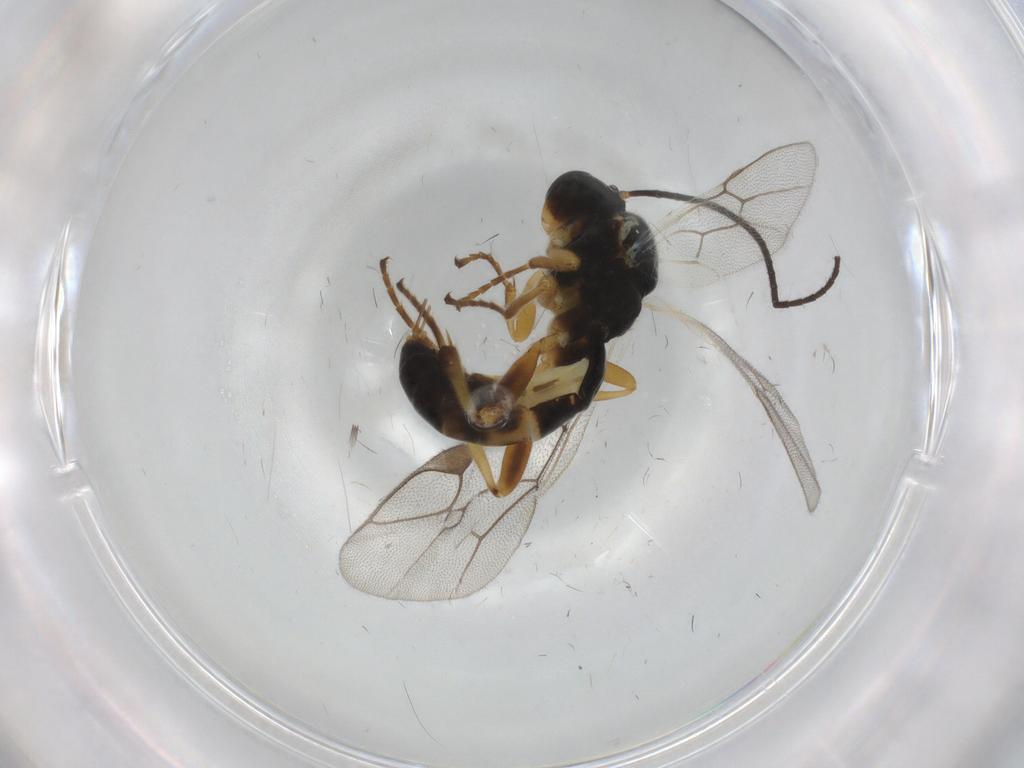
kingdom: Animalia
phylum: Arthropoda
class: Insecta
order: Hymenoptera
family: Ichneumonidae
